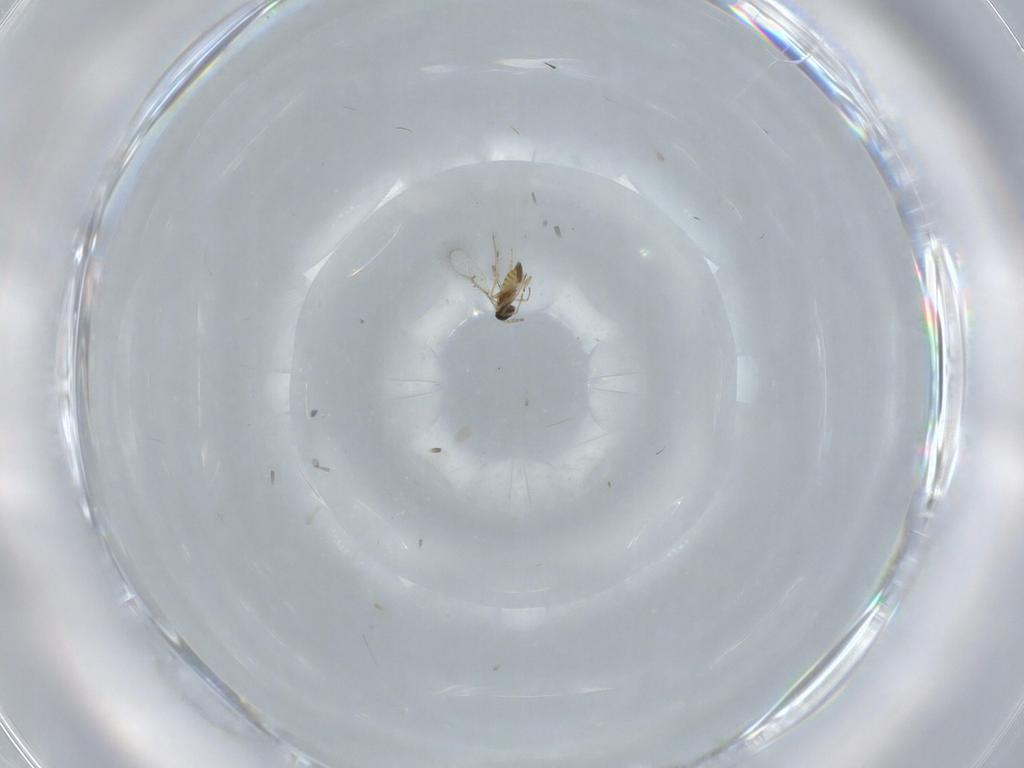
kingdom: Animalia
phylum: Arthropoda
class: Insecta
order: Hymenoptera
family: Trichogrammatidae
